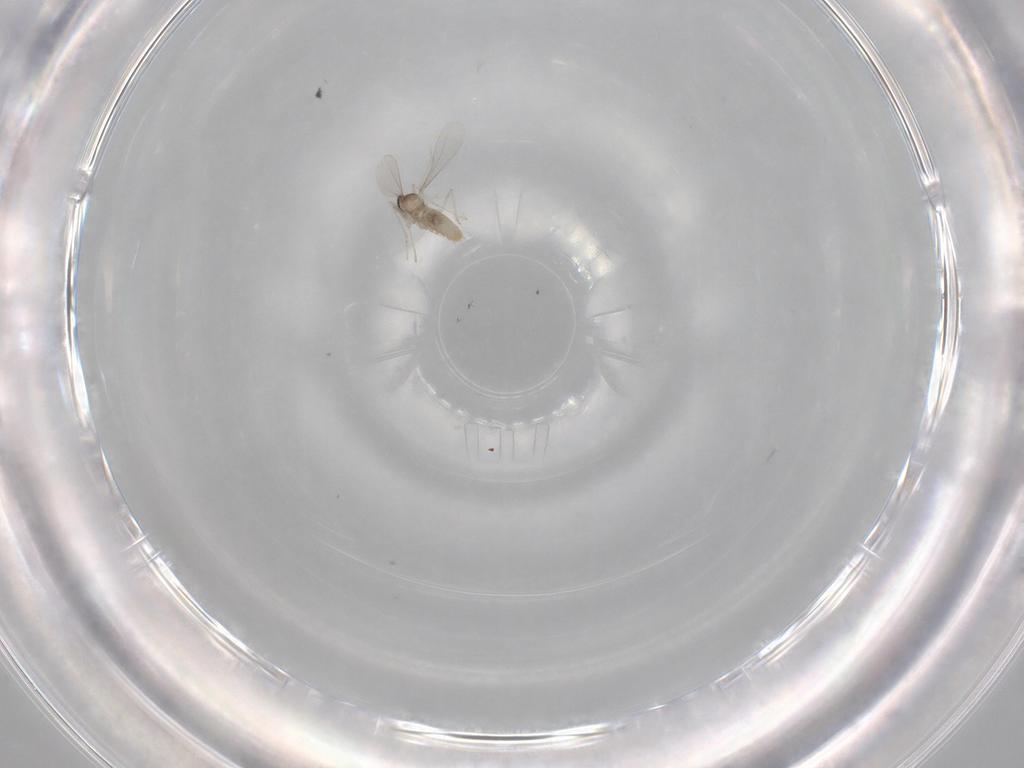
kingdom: Animalia
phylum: Arthropoda
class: Insecta
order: Diptera
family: Cecidomyiidae
